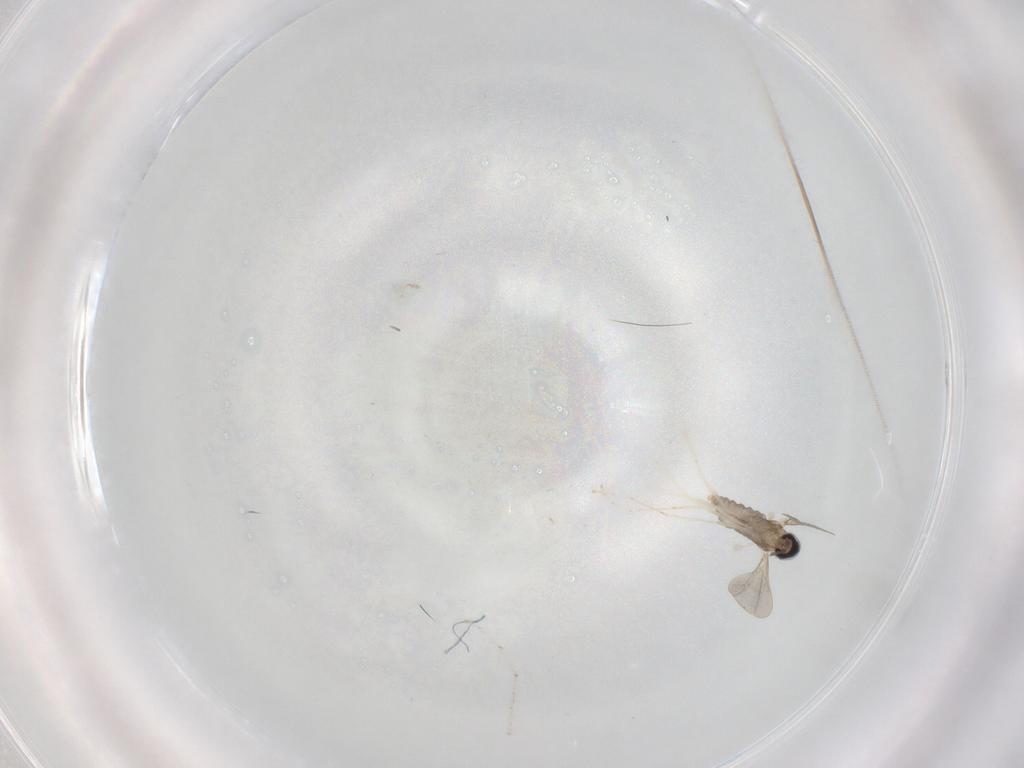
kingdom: Animalia
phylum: Arthropoda
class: Insecta
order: Diptera
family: Cecidomyiidae
